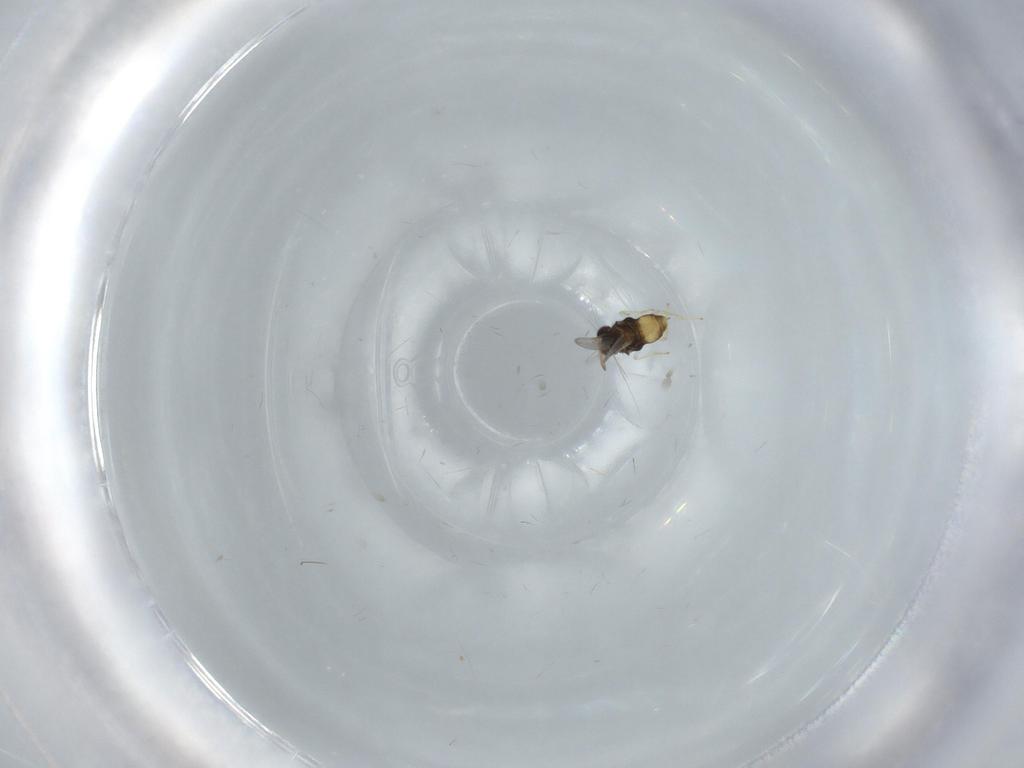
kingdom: Animalia
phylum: Arthropoda
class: Insecta
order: Hymenoptera
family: Aphelinidae
